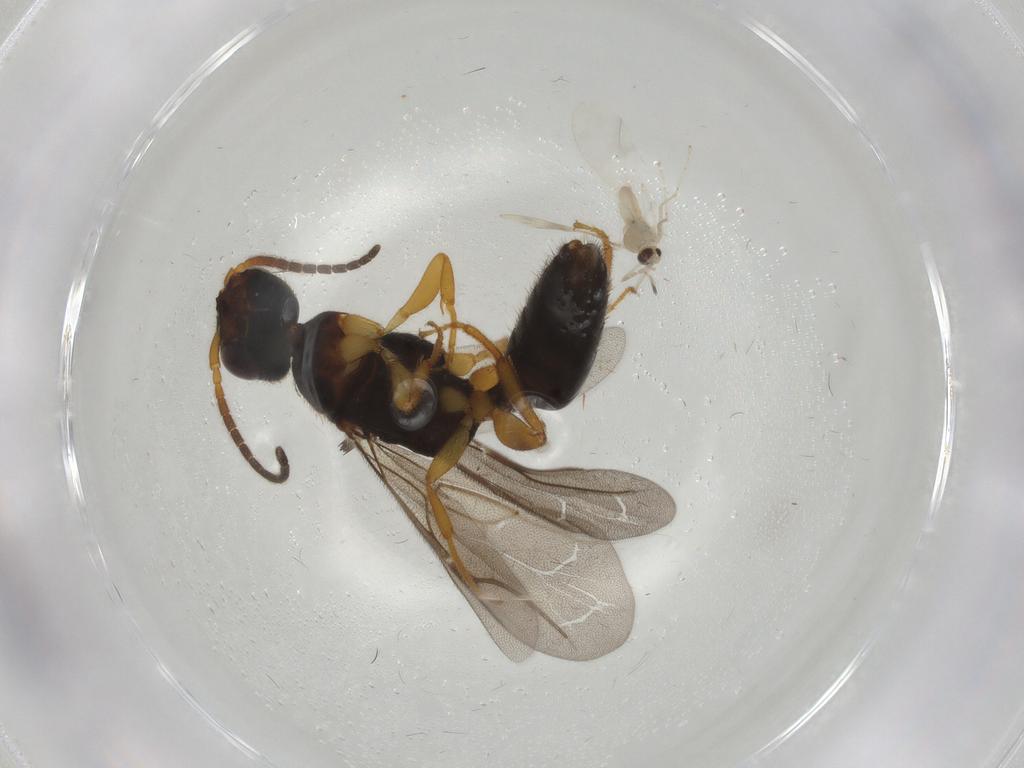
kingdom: Animalia
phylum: Arthropoda
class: Insecta
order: Diptera
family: Cecidomyiidae
